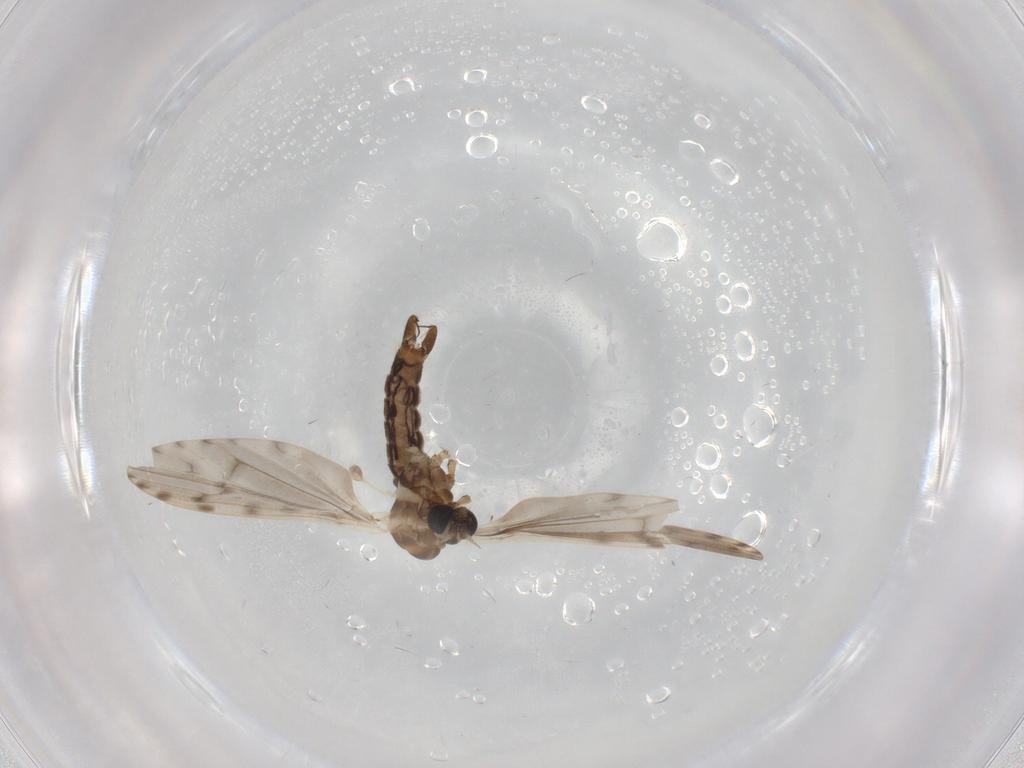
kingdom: Animalia
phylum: Arthropoda
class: Insecta
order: Diptera
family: Limoniidae
